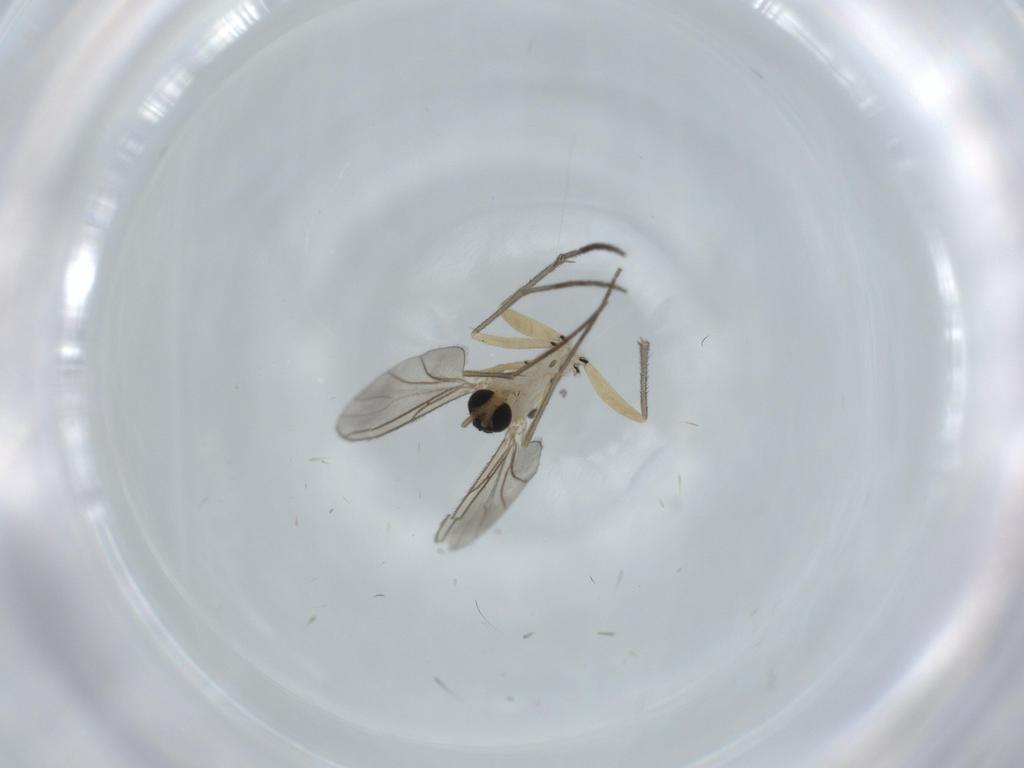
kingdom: Animalia
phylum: Arthropoda
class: Insecta
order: Diptera
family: Sciaridae
